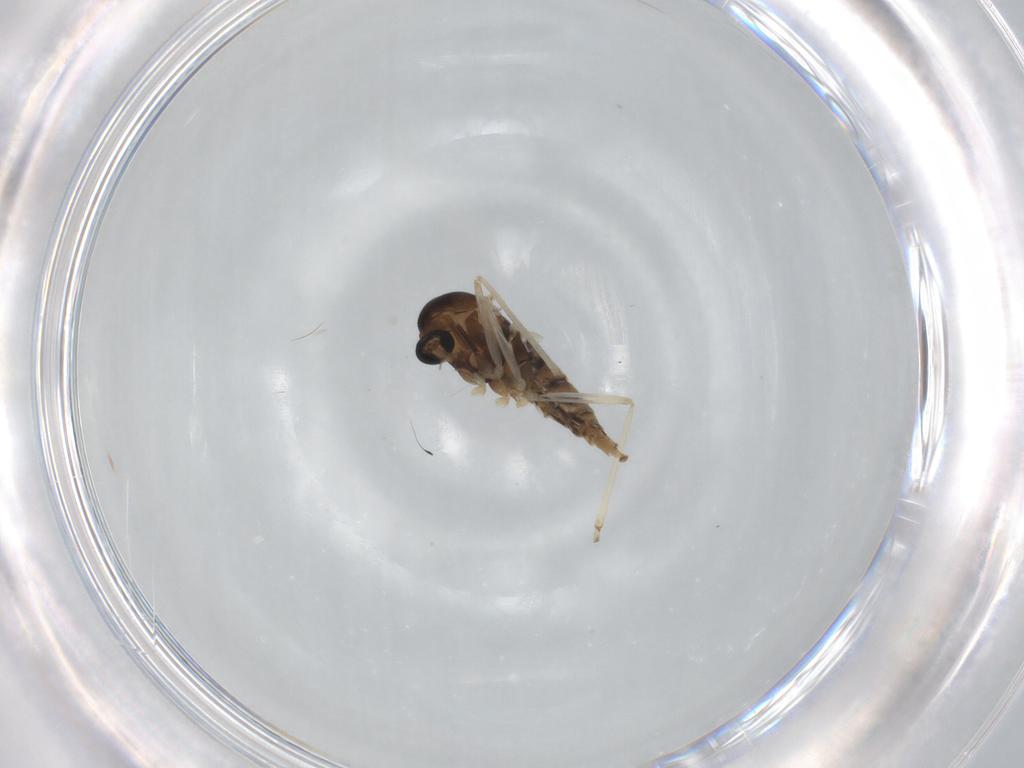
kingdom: Animalia
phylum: Arthropoda
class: Insecta
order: Diptera
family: Cecidomyiidae
